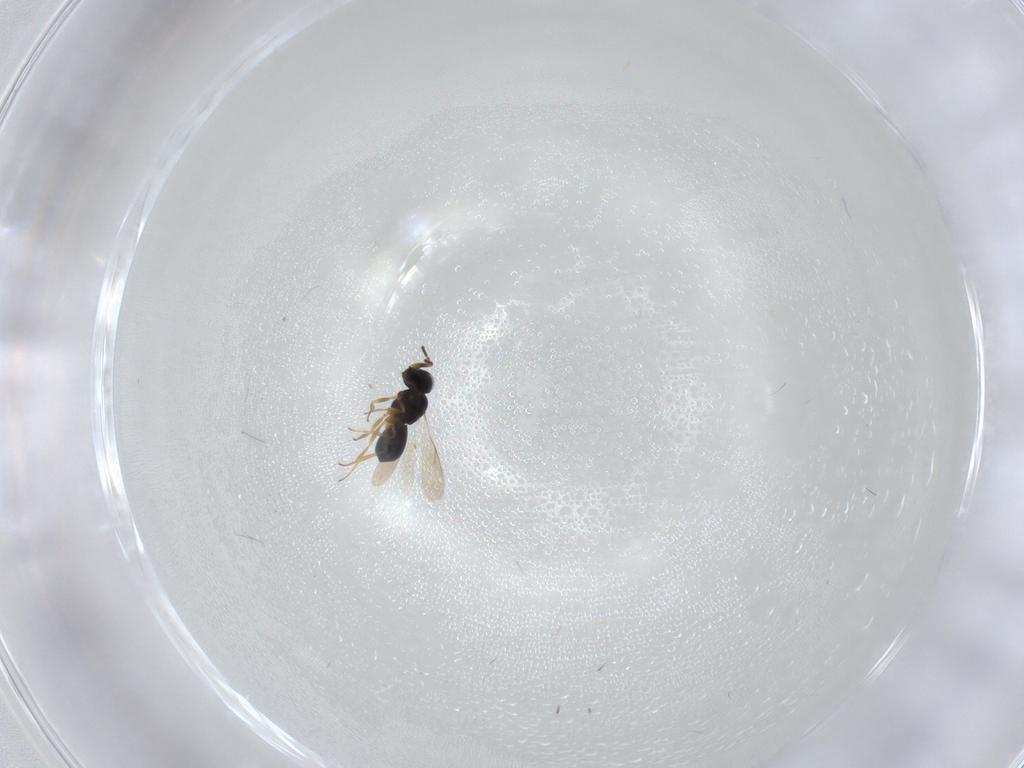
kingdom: Animalia
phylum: Arthropoda
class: Insecta
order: Hymenoptera
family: Scelionidae
